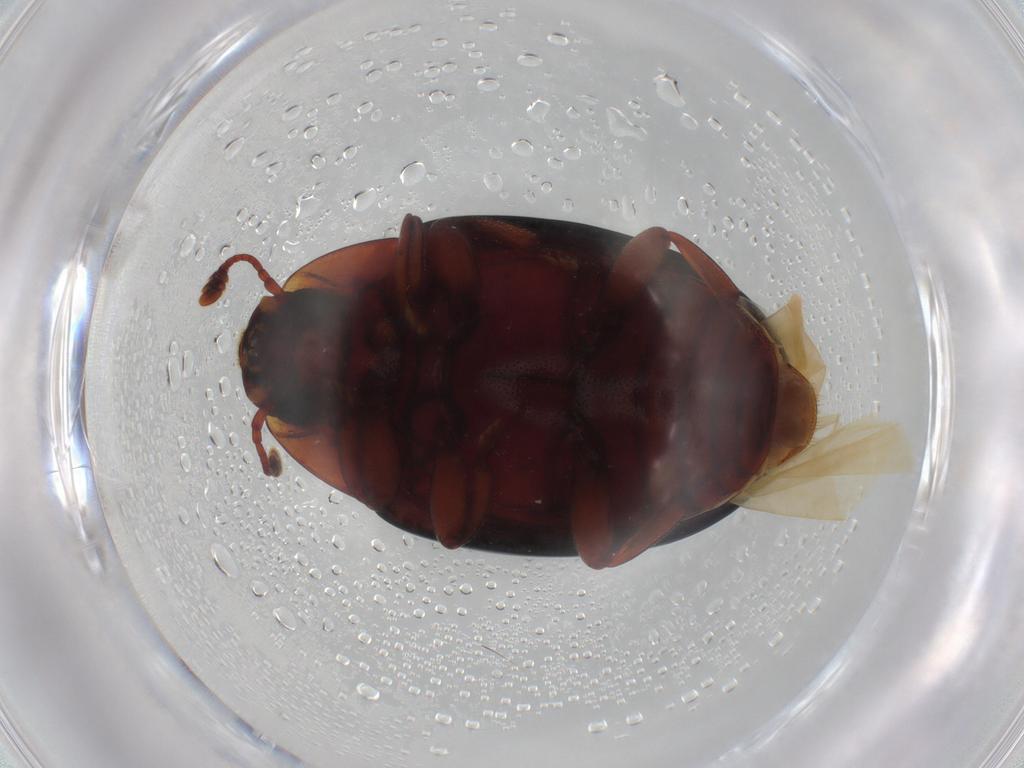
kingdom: Animalia
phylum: Arthropoda
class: Insecta
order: Coleoptera
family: Zopheridae
